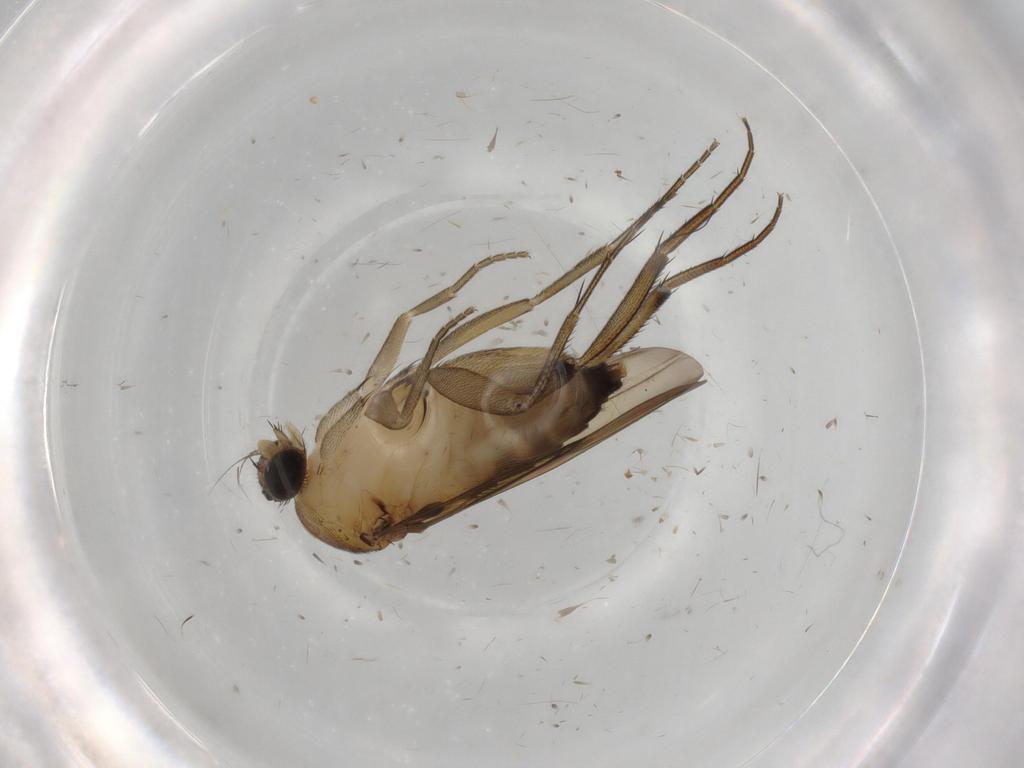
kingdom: Animalia
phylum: Arthropoda
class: Insecta
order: Diptera
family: Phoridae
